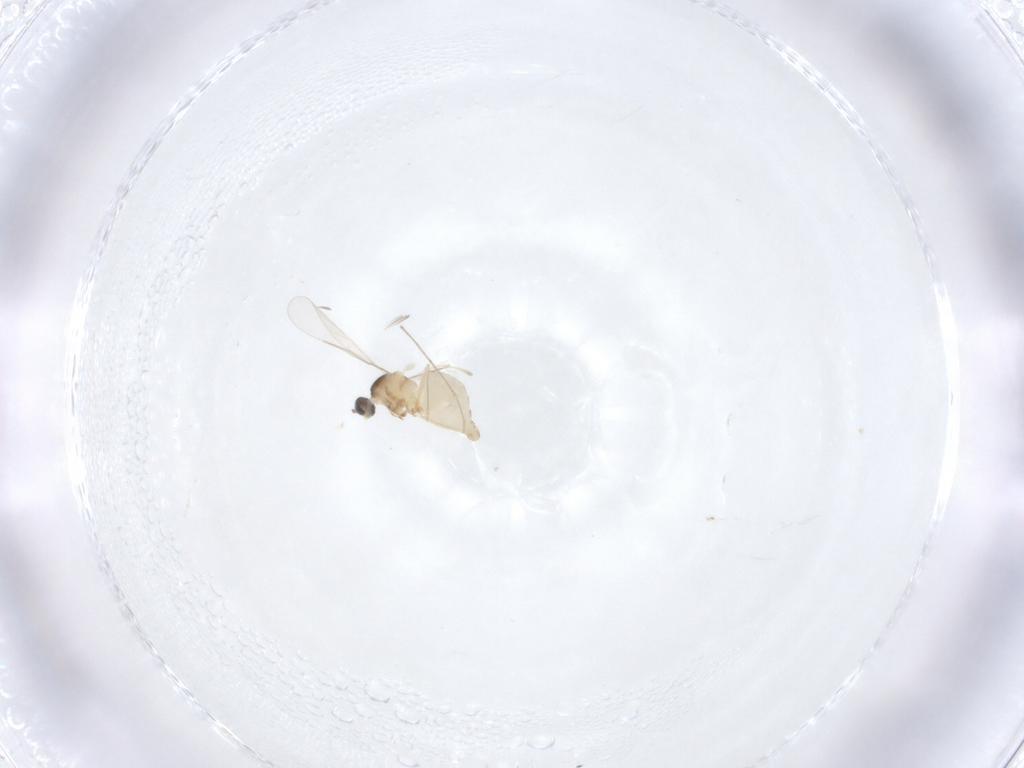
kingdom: Animalia
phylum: Arthropoda
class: Insecta
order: Diptera
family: Cecidomyiidae
